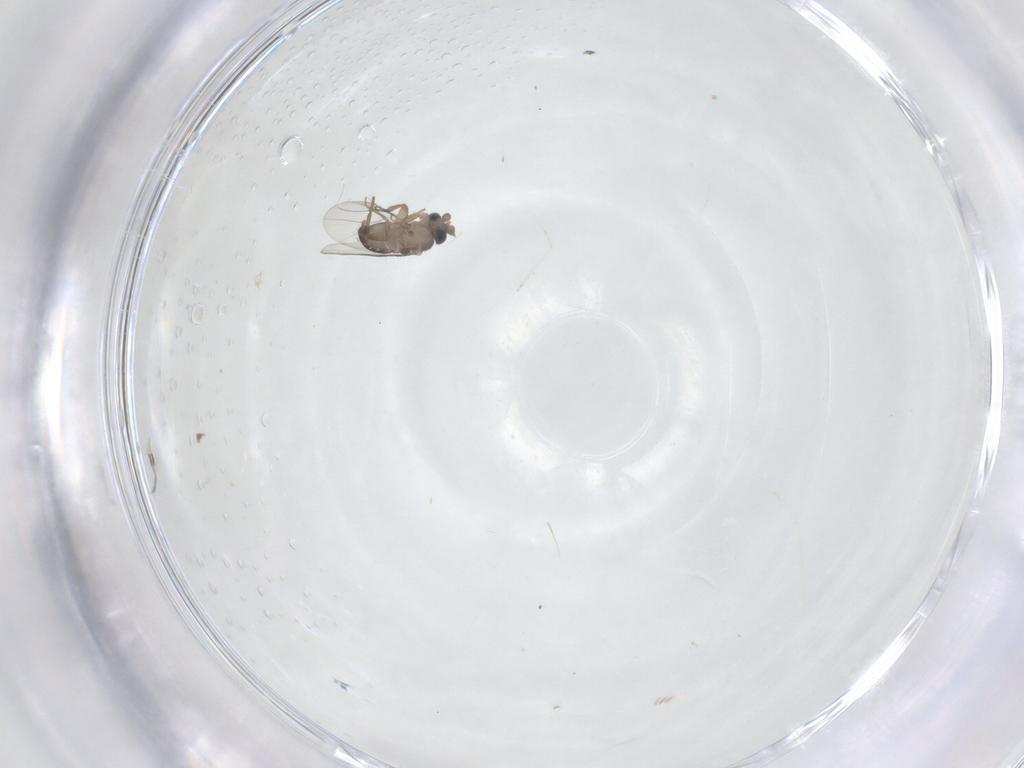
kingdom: Animalia
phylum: Arthropoda
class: Insecta
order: Diptera
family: Phoridae
